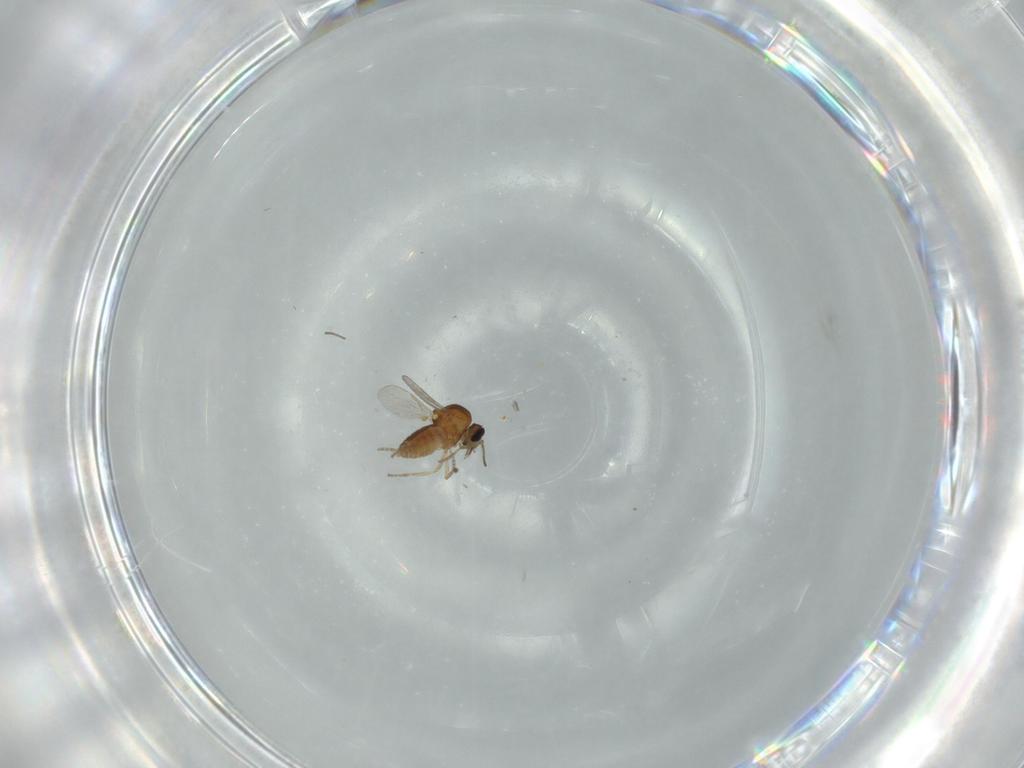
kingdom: Animalia
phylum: Arthropoda
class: Insecta
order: Diptera
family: Ceratopogonidae
